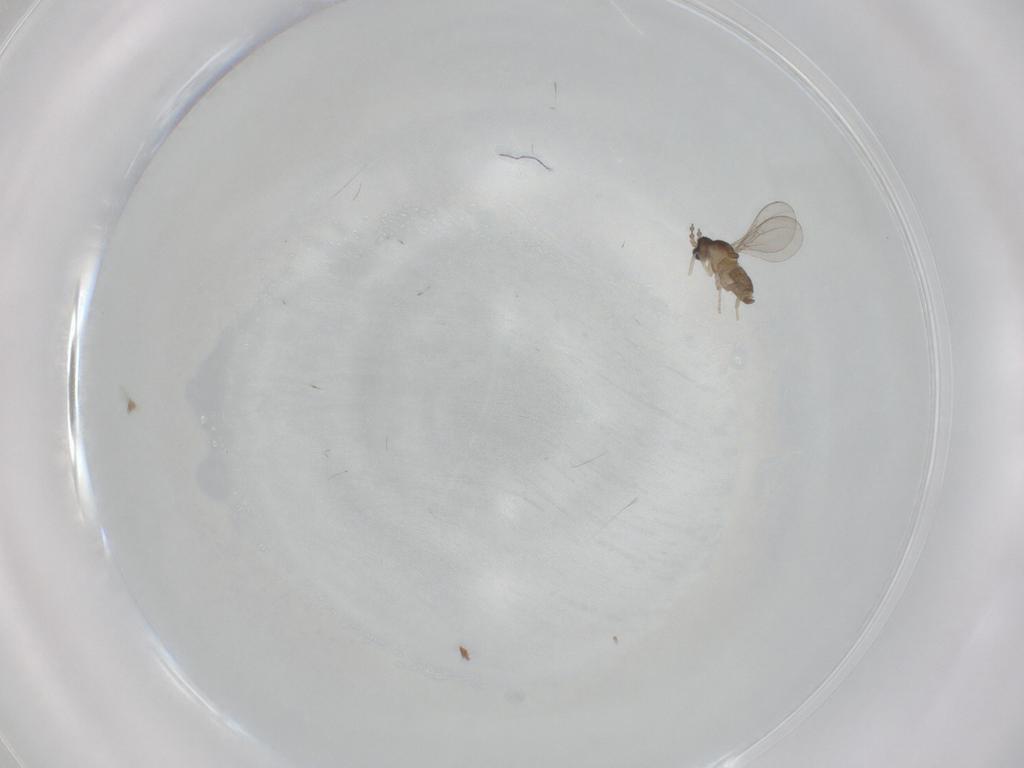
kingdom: Animalia
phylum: Arthropoda
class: Insecta
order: Diptera
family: Cecidomyiidae
